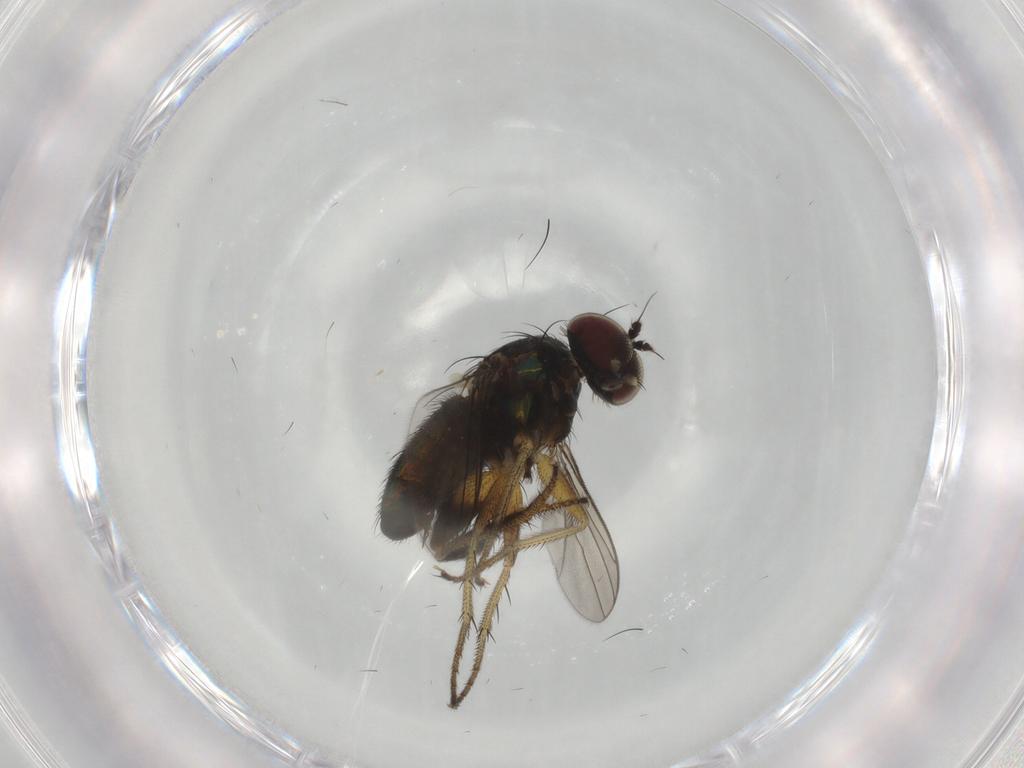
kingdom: Animalia
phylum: Arthropoda
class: Insecta
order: Diptera
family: Dolichopodidae
